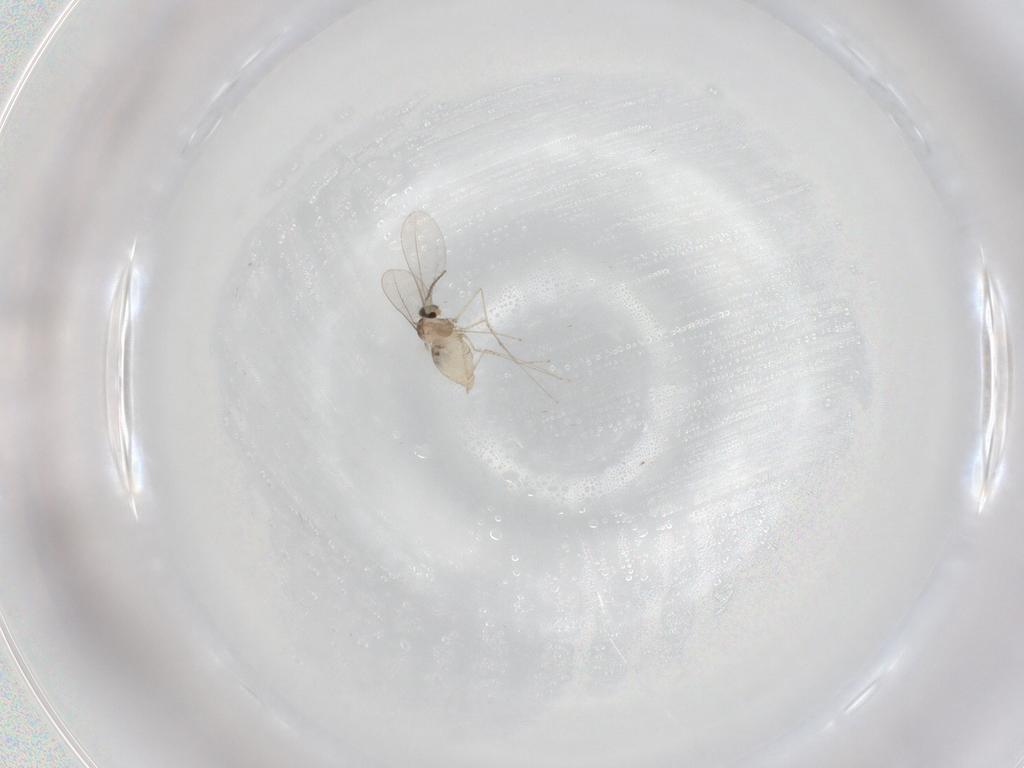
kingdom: Animalia
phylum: Arthropoda
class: Insecta
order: Diptera
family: Cecidomyiidae
